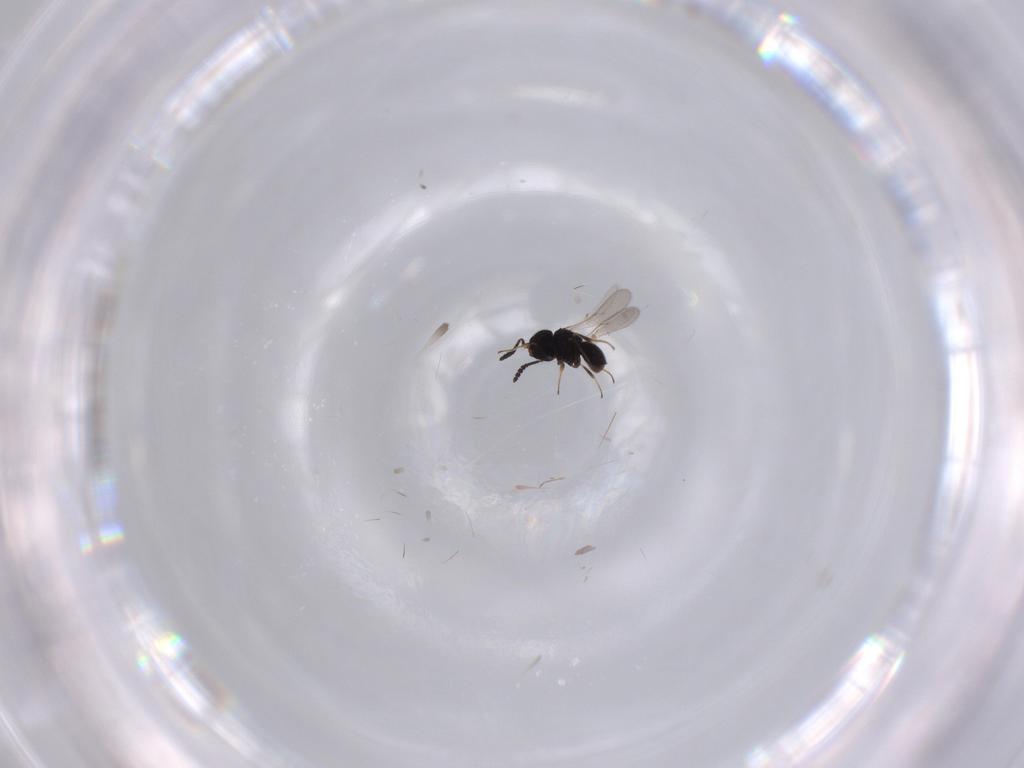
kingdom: Animalia
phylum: Arthropoda
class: Insecta
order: Hymenoptera
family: Scelionidae
